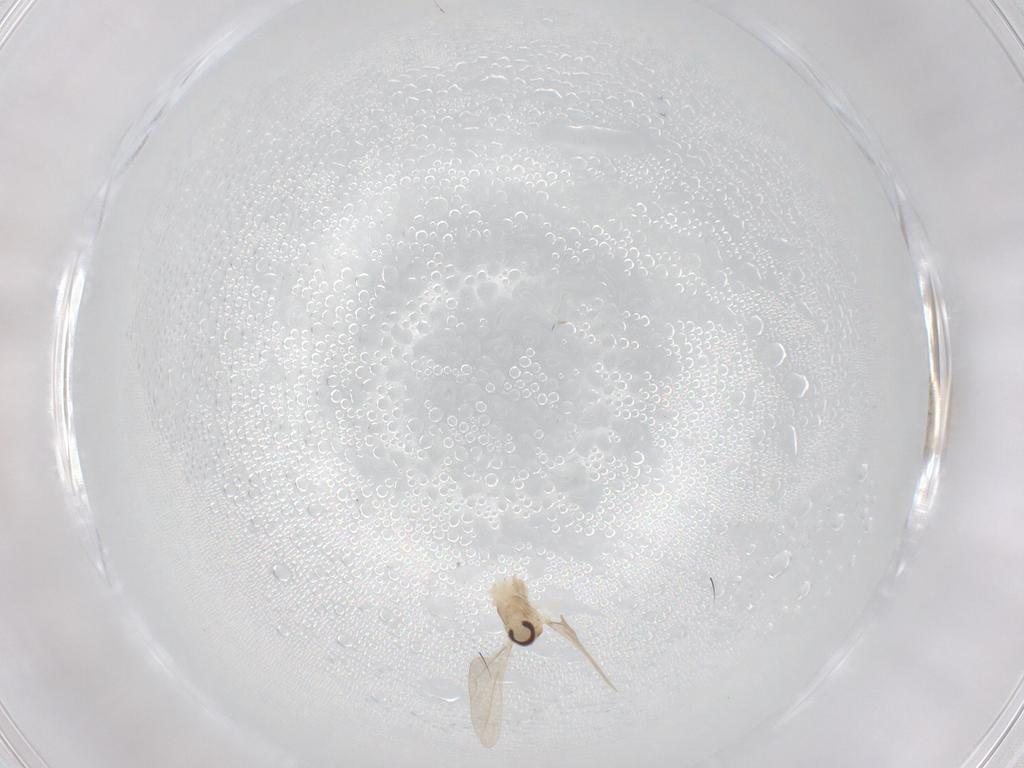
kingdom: Animalia
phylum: Arthropoda
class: Insecta
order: Diptera
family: Cecidomyiidae
